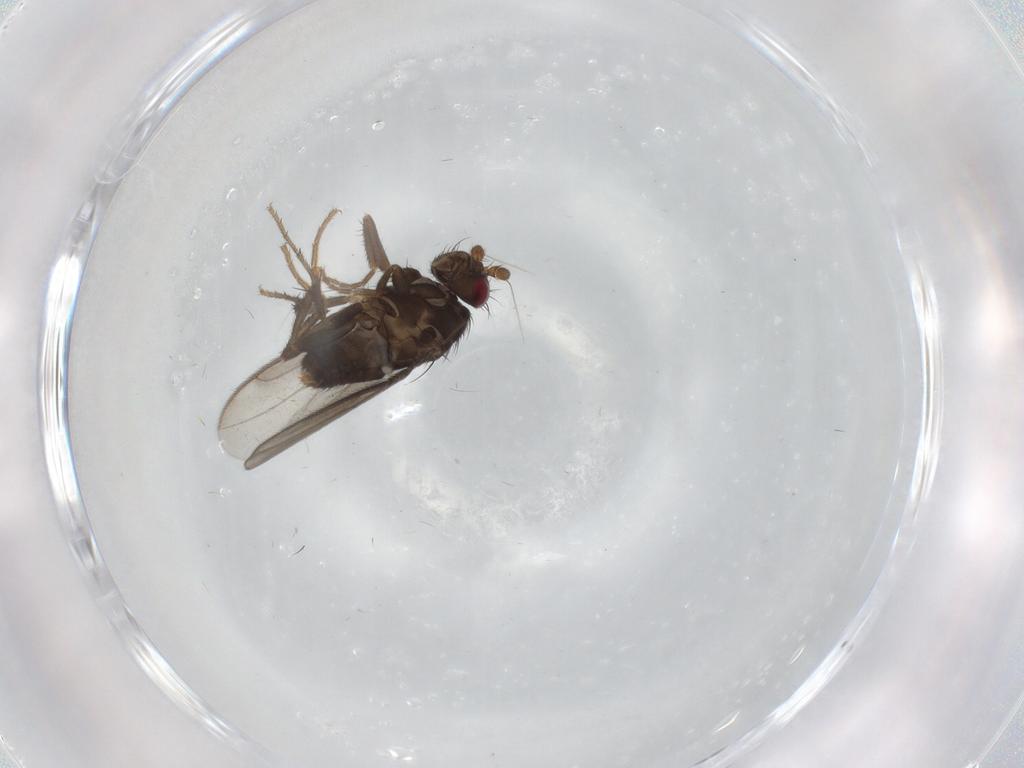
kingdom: Animalia
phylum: Arthropoda
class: Insecta
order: Diptera
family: Sphaeroceridae
